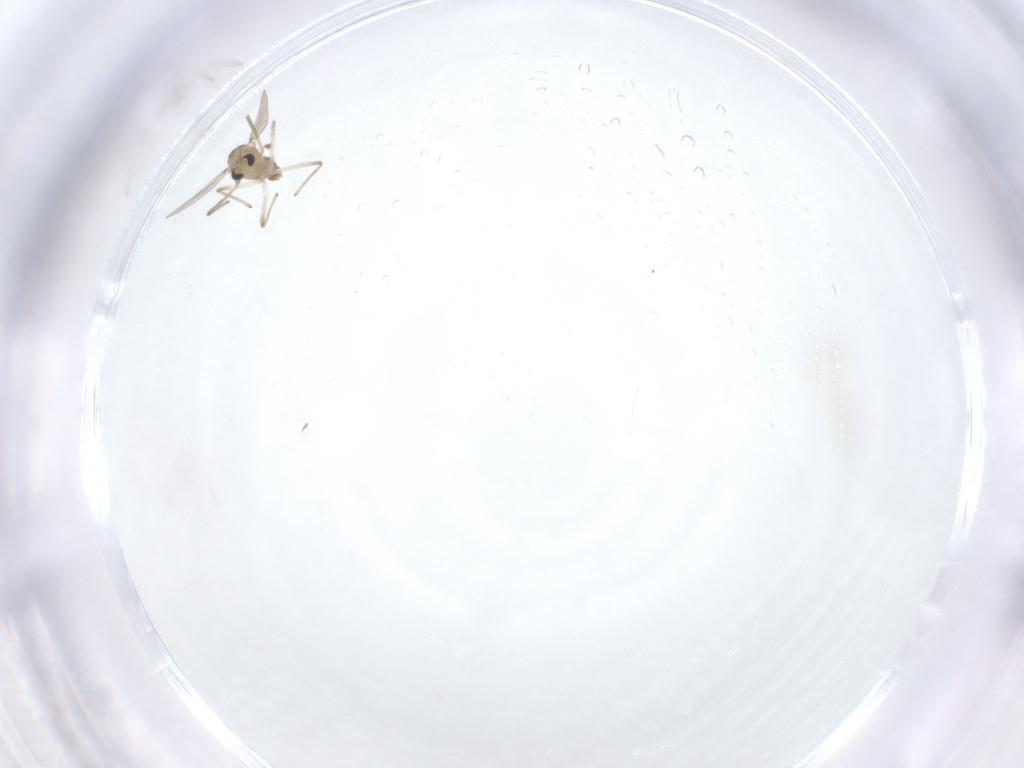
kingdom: Animalia
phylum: Arthropoda
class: Insecta
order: Diptera
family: Chironomidae
